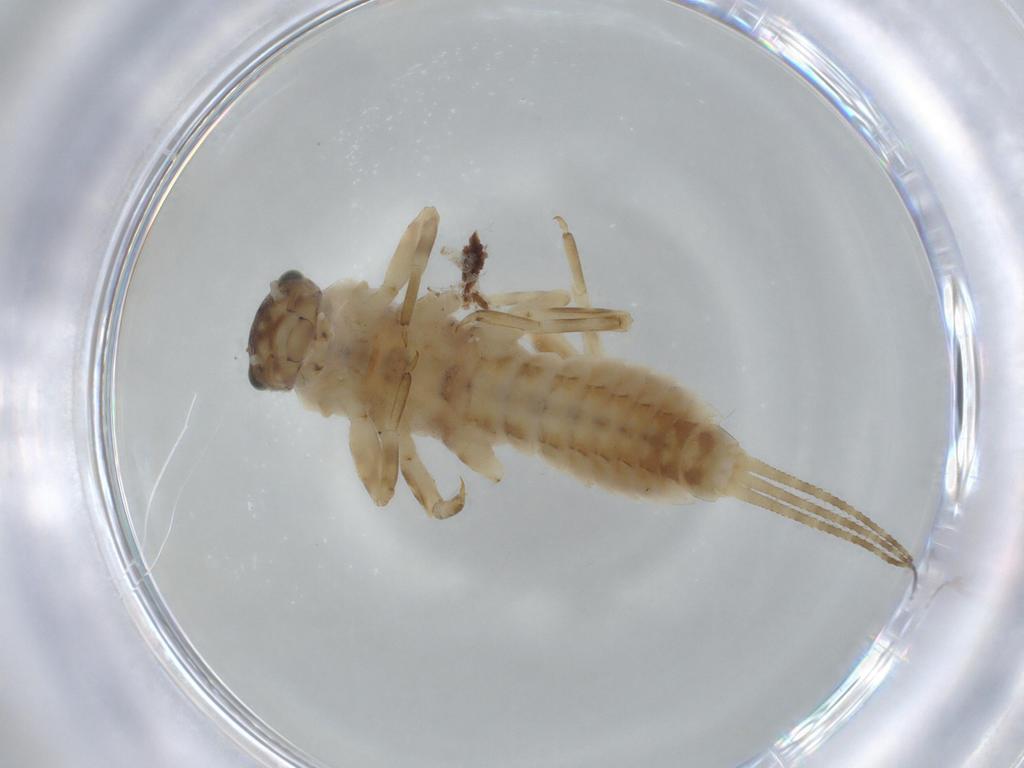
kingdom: Animalia
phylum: Arthropoda
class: Insecta
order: Ephemeroptera
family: Ephemerellidae
